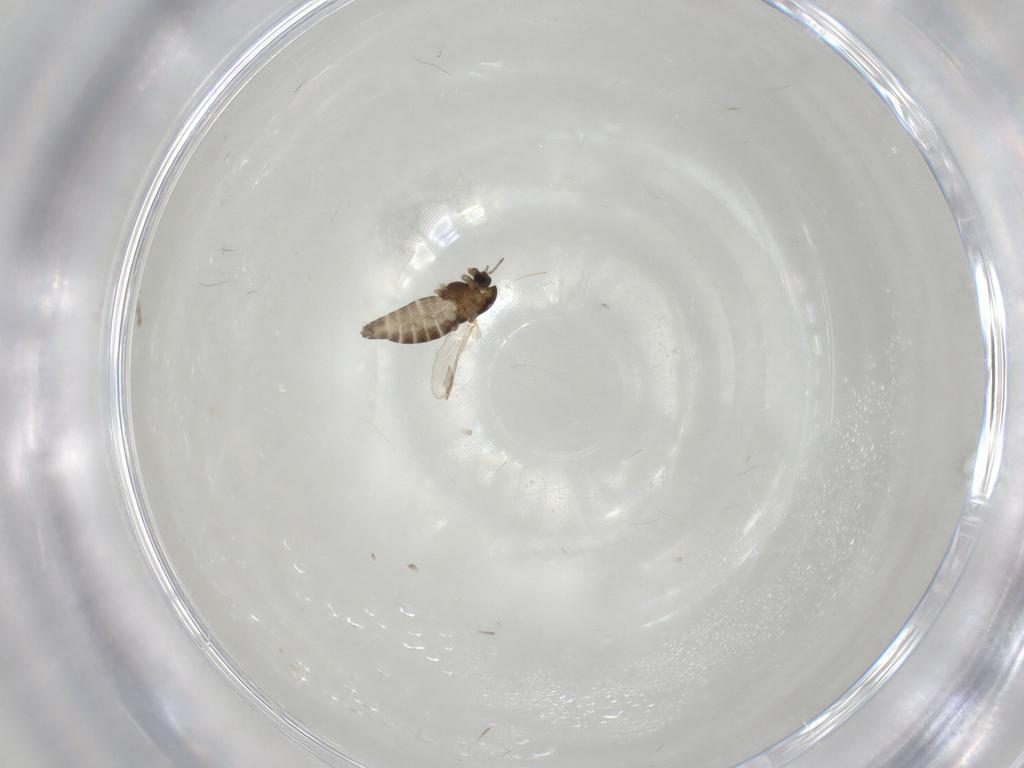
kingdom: Animalia
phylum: Arthropoda
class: Insecta
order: Diptera
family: Chironomidae
